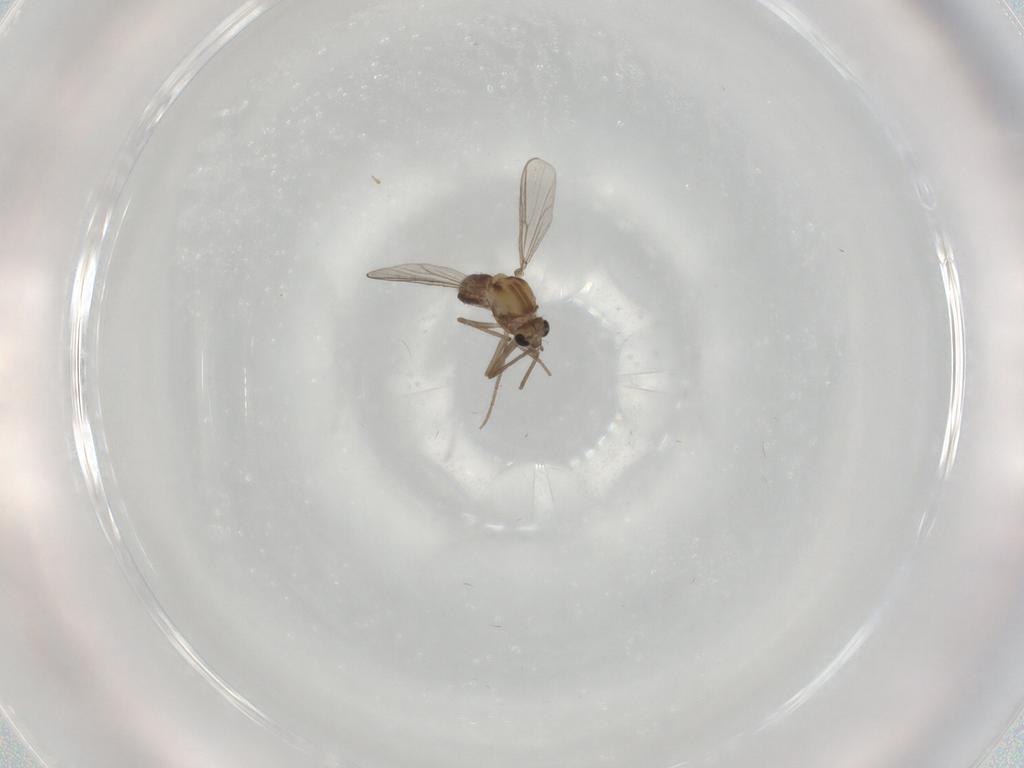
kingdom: Animalia
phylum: Arthropoda
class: Insecta
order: Diptera
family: Chironomidae
